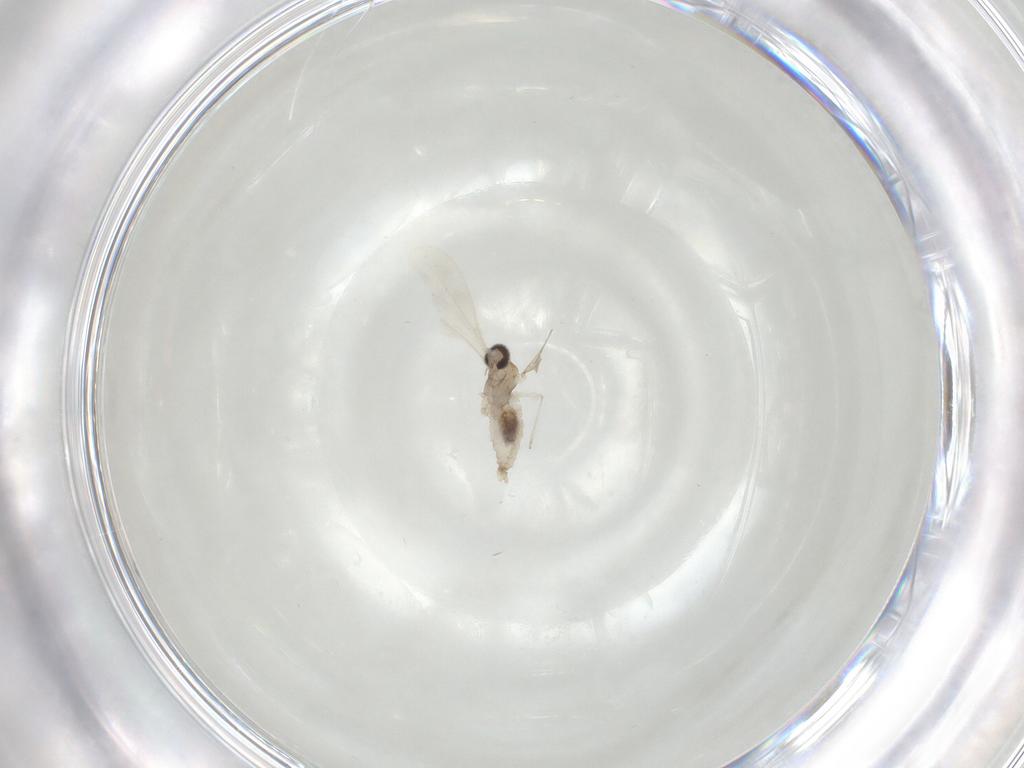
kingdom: Animalia
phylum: Arthropoda
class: Insecta
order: Diptera
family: Cecidomyiidae
